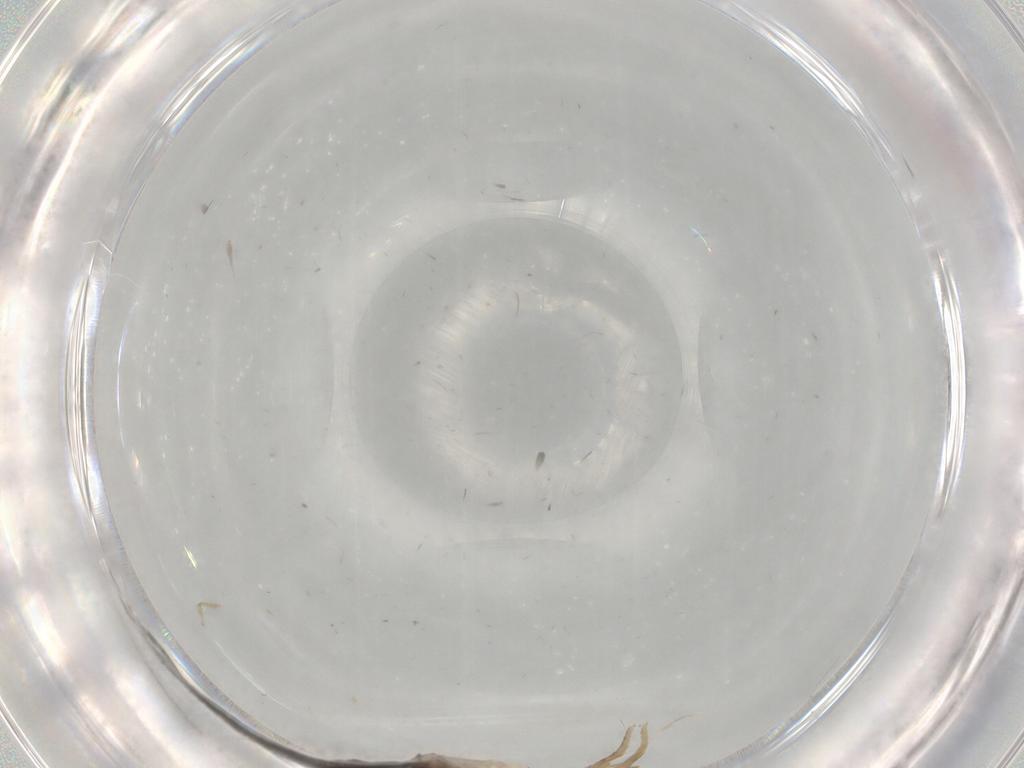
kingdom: Animalia
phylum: Arthropoda
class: Insecta
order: Lepidoptera
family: Psychidae
